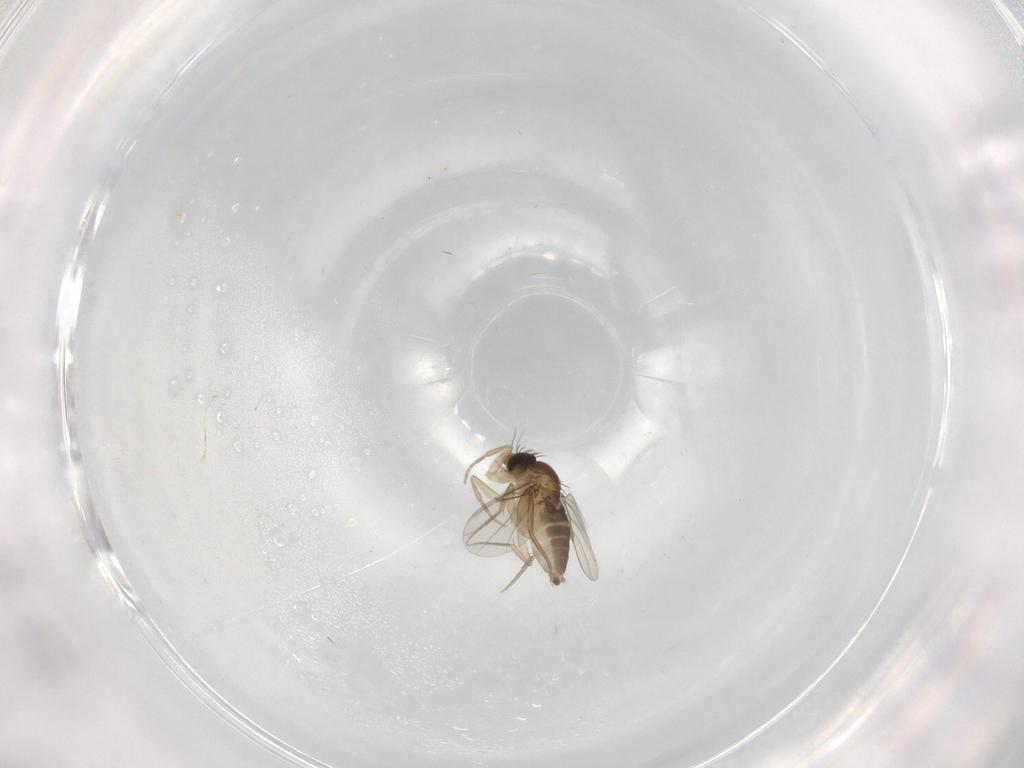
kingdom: Animalia
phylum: Arthropoda
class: Insecta
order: Diptera
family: Phoridae
